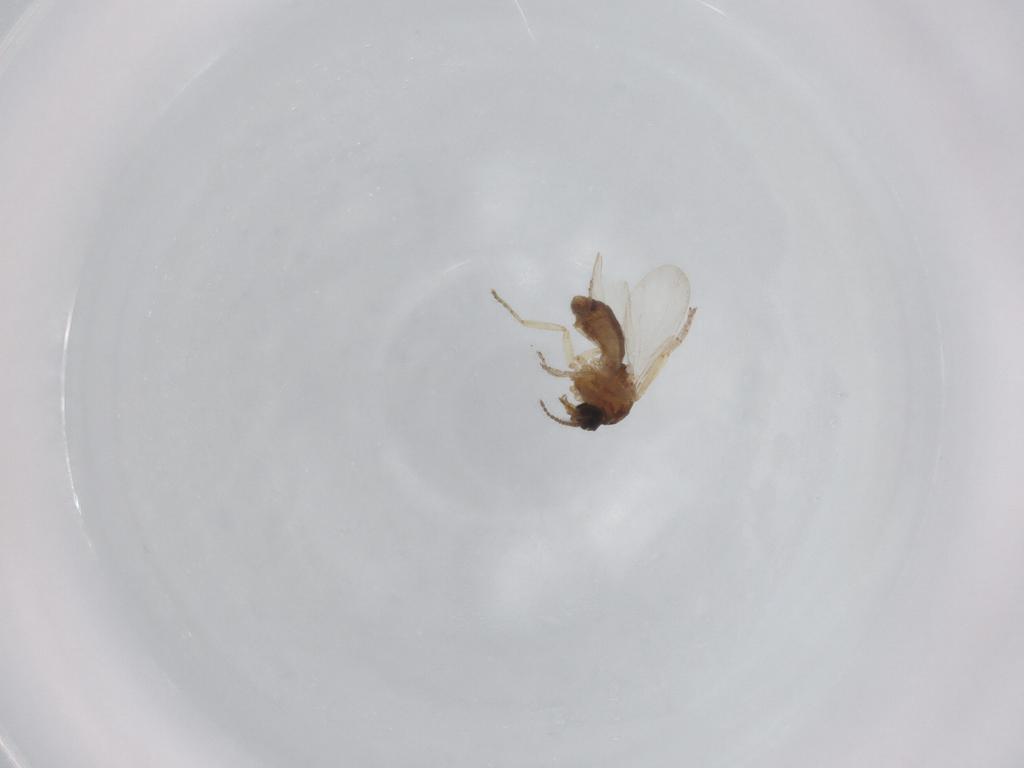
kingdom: Animalia
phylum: Arthropoda
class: Insecta
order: Diptera
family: Ceratopogonidae
